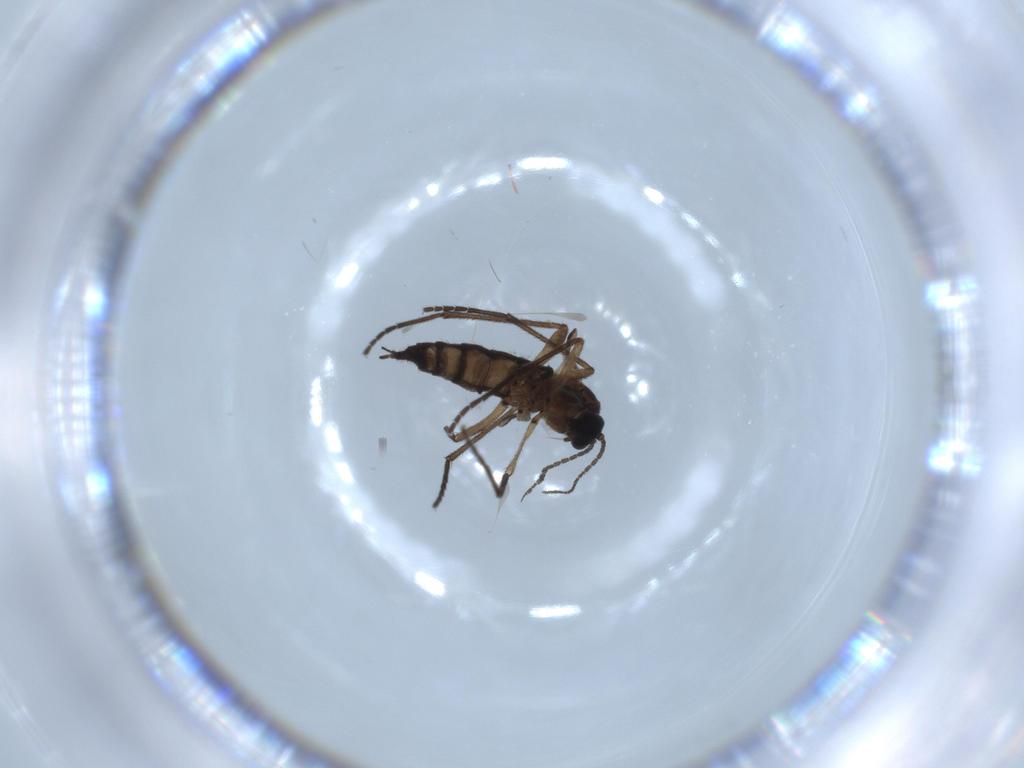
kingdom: Animalia
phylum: Arthropoda
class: Insecta
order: Diptera
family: Sciaridae
